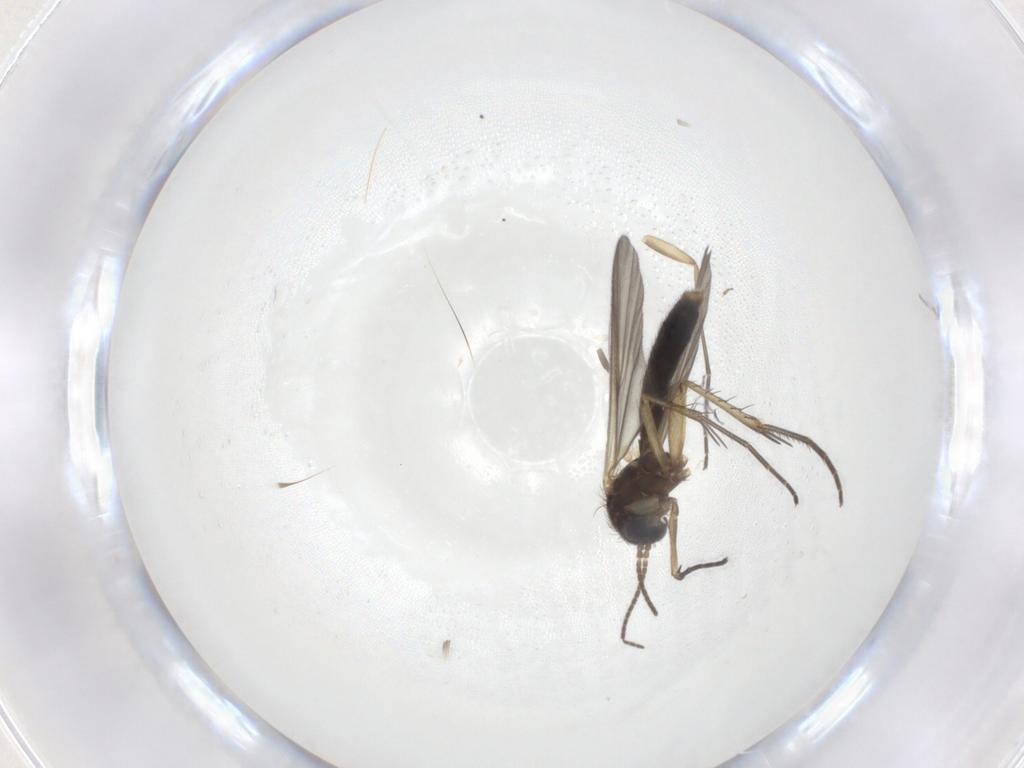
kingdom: Animalia
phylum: Arthropoda
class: Insecta
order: Diptera
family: Mycetophilidae
